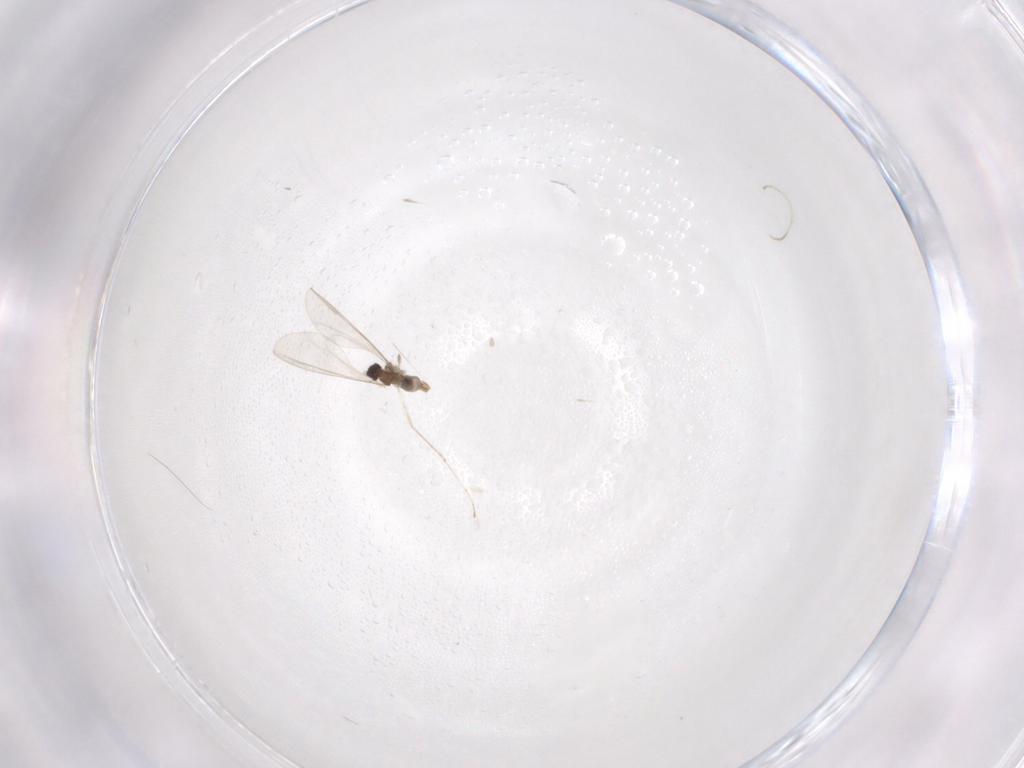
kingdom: Animalia
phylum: Arthropoda
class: Insecta
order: Diptera
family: Cecidomyiidae
